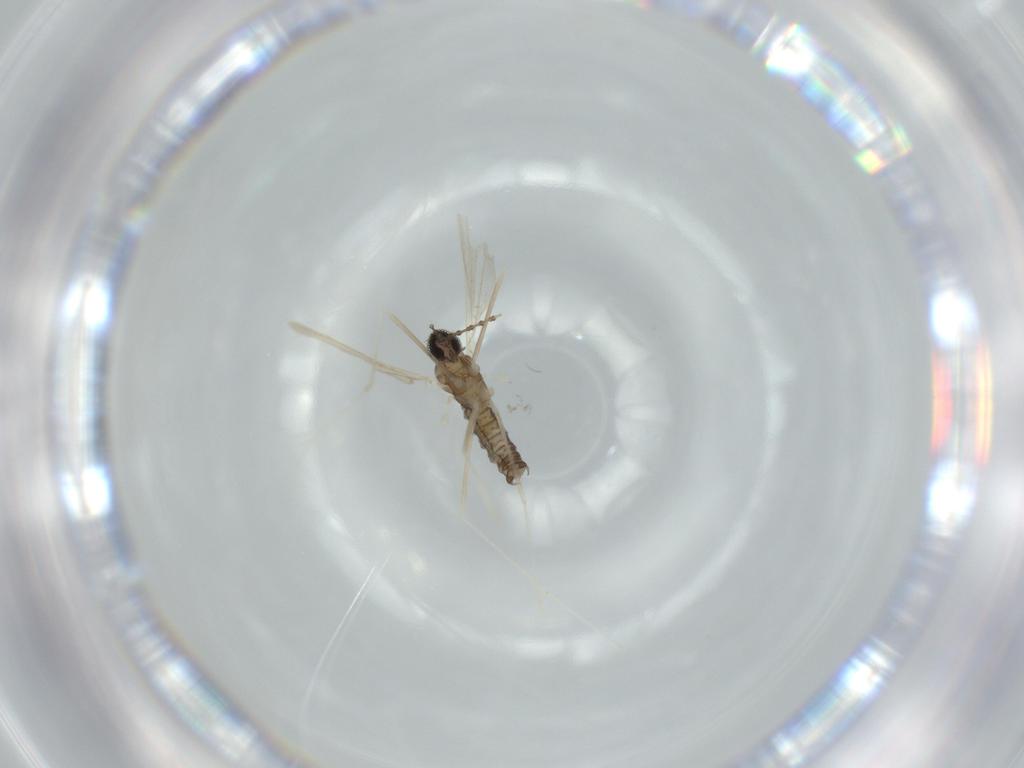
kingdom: Animalia
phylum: Arthropoda
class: Insecta
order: Diptera
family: Cecidomyiidae
